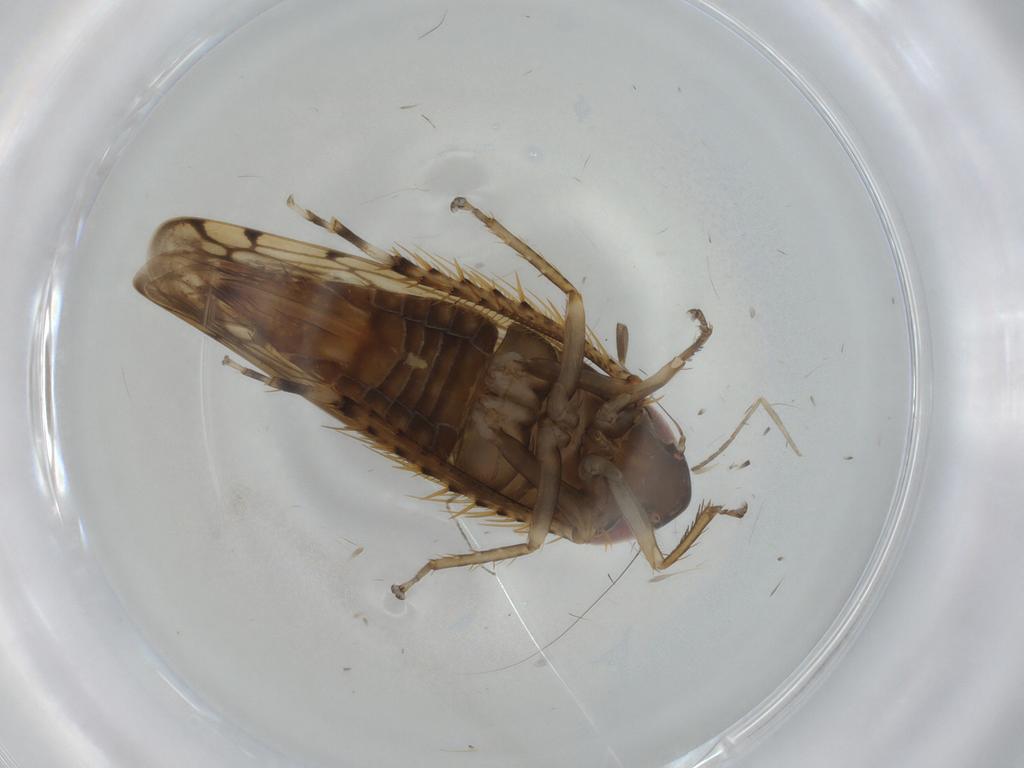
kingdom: Animalia
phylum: Arthropoda
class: Insecta
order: Hemiptera
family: Cicadellidae
